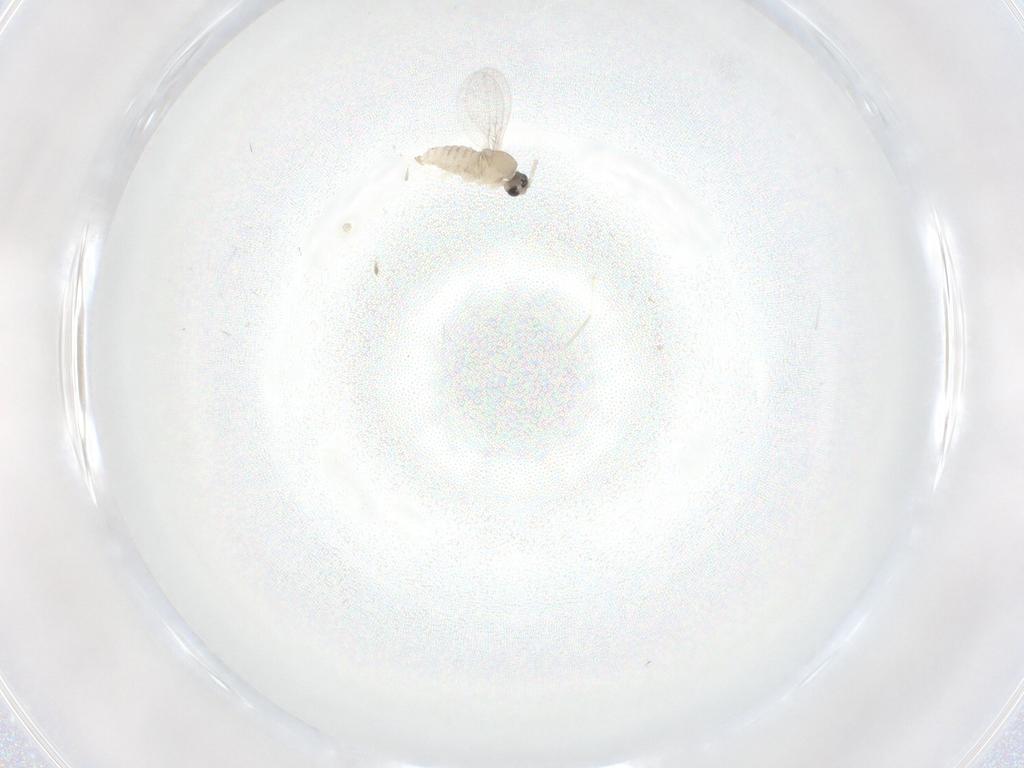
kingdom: Animalia
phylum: Arthropoda
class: Insecta
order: Diptera
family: Cecidomyiidae
